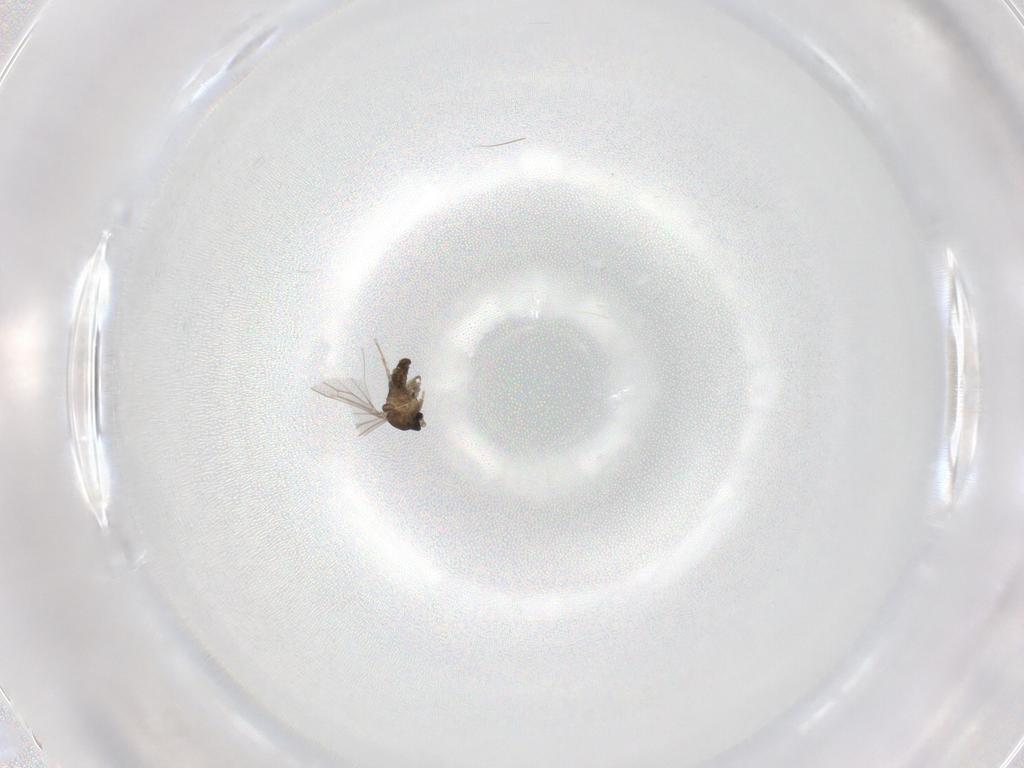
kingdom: Animalia
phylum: Arthropoda
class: Insecta
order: Diptera
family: Cecidomyiidae
